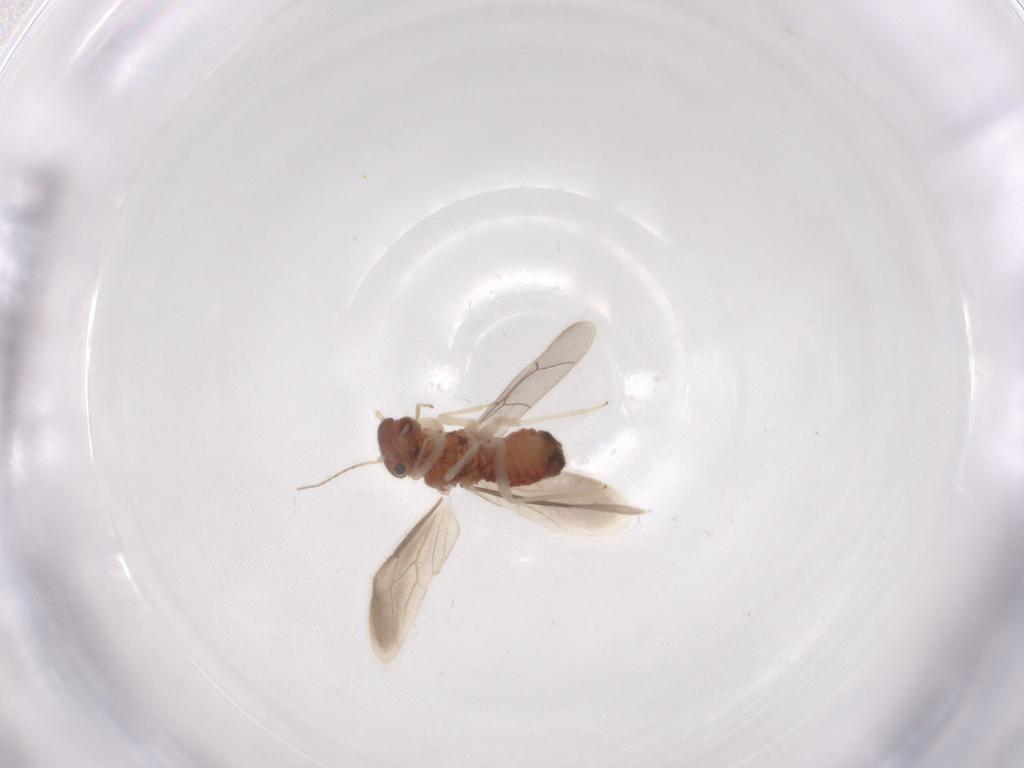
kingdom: Animalia
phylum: Arthropoda
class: Insecta
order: Psocodea
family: Archipsocidae
